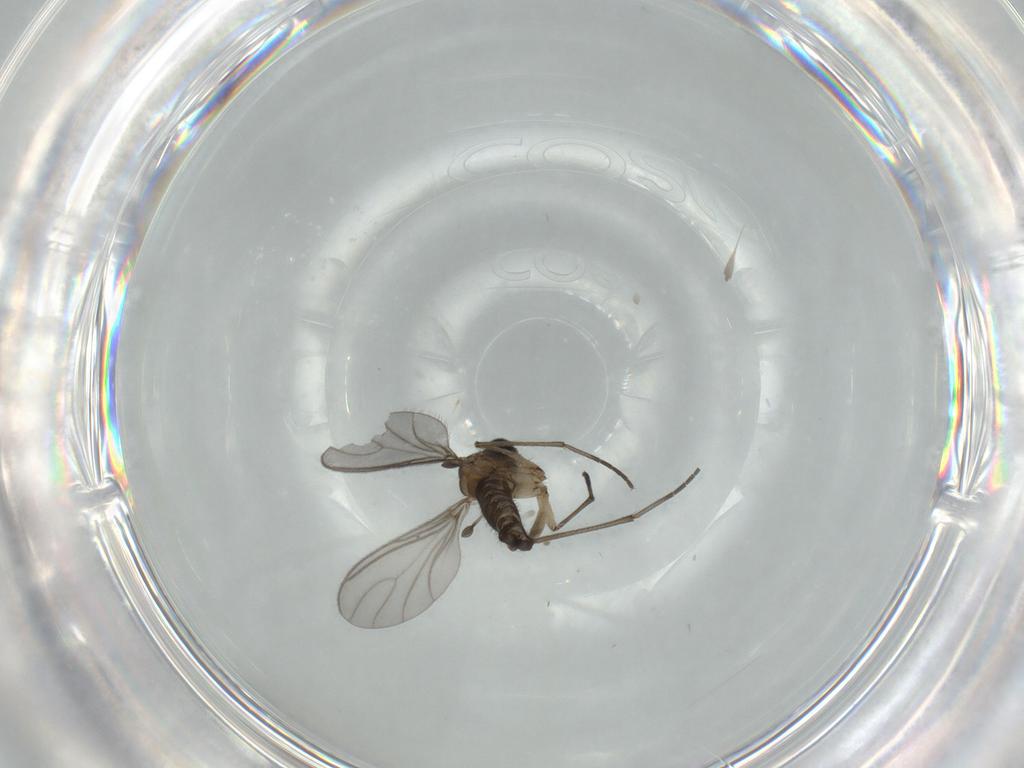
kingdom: Animalia
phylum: Arthropoda
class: Insecta
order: Diptera
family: Sciaridae
